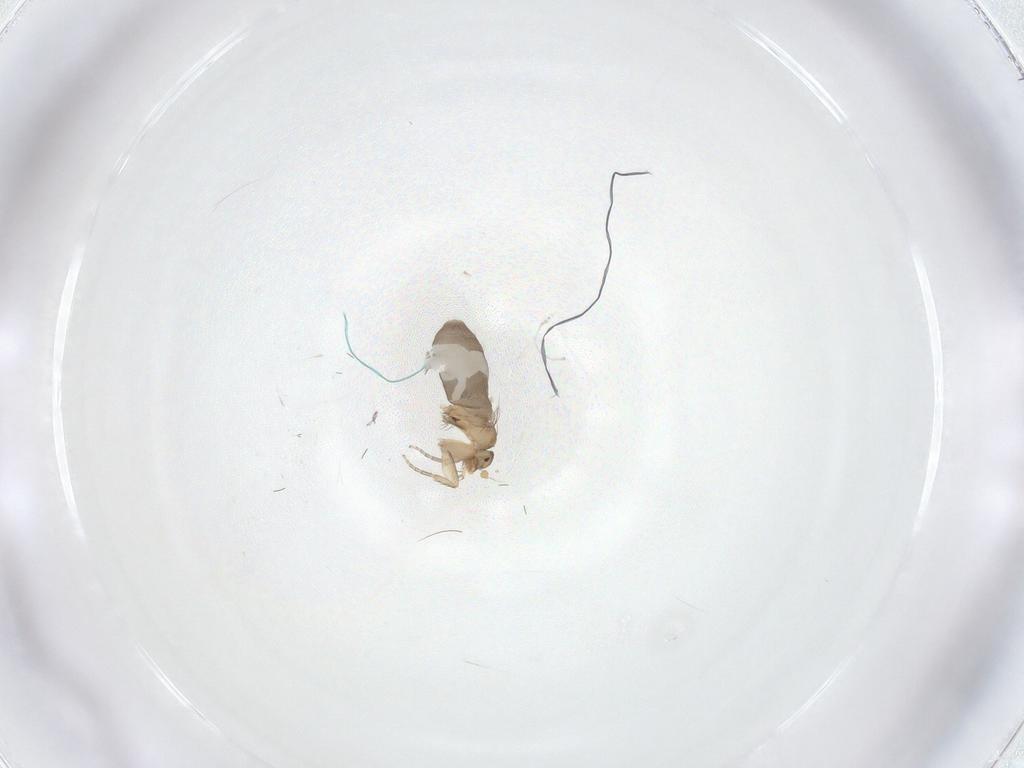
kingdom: Animalia
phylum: Arthropoda
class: Insecta
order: Diptera
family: Phoridae
